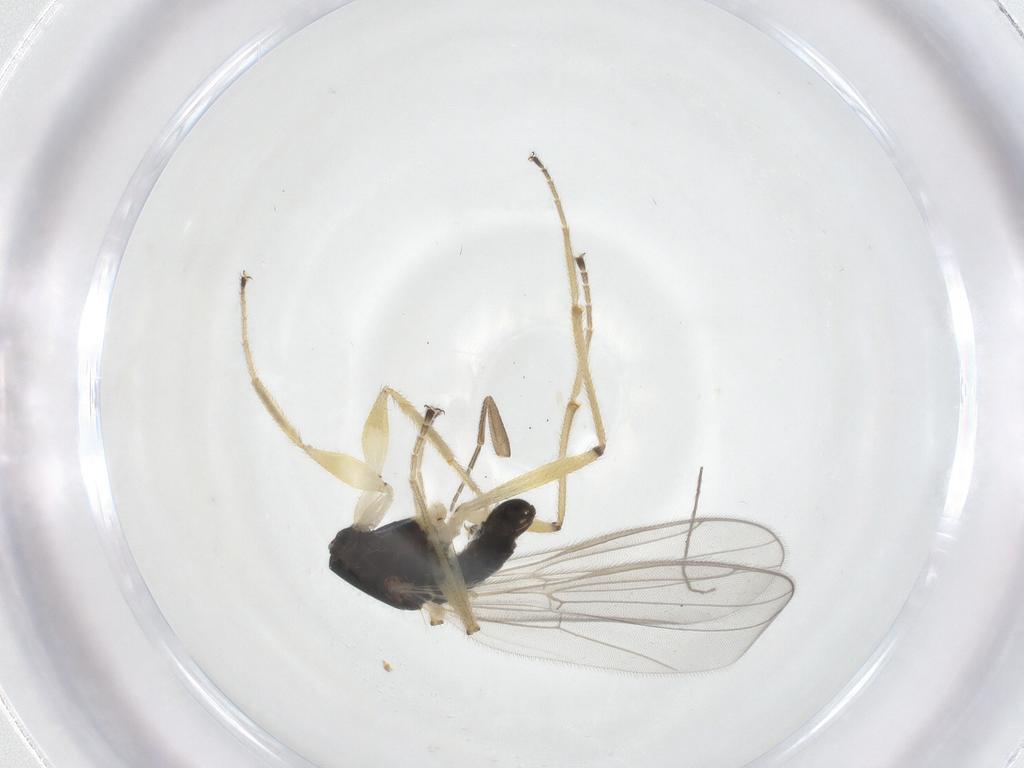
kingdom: Animalia
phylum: Arthropoda
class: Insecta
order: Diptera
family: Hybotidae
